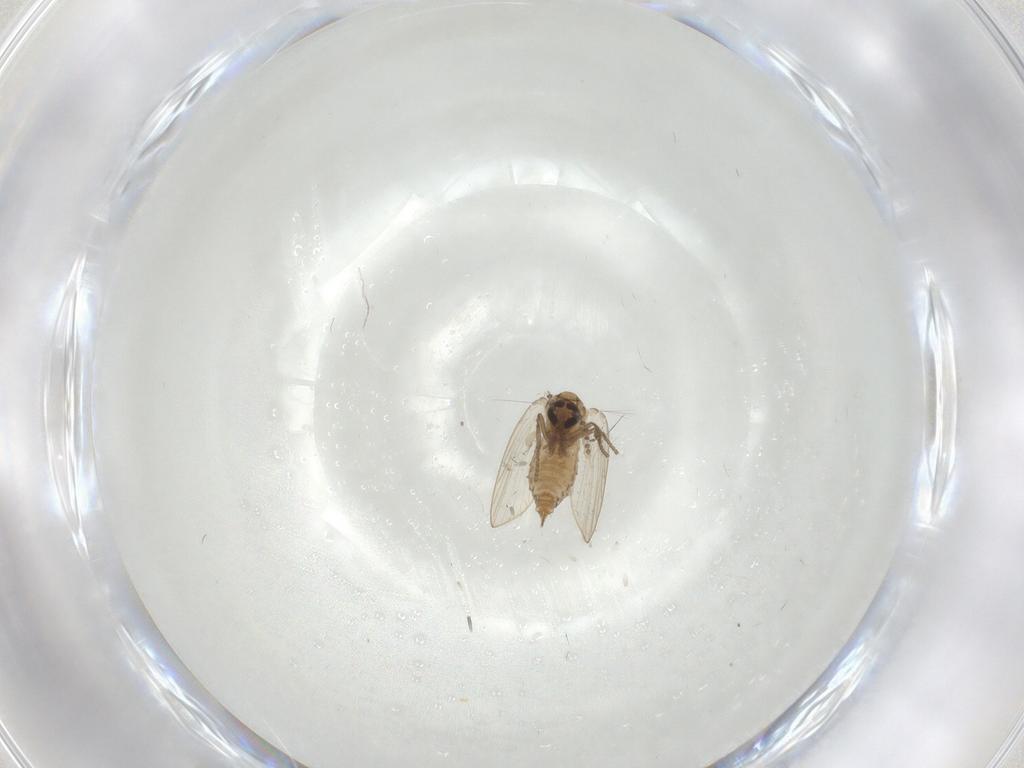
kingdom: Animalia
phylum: Arthropoda
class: Insecta
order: Diptera
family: Psychodidae
